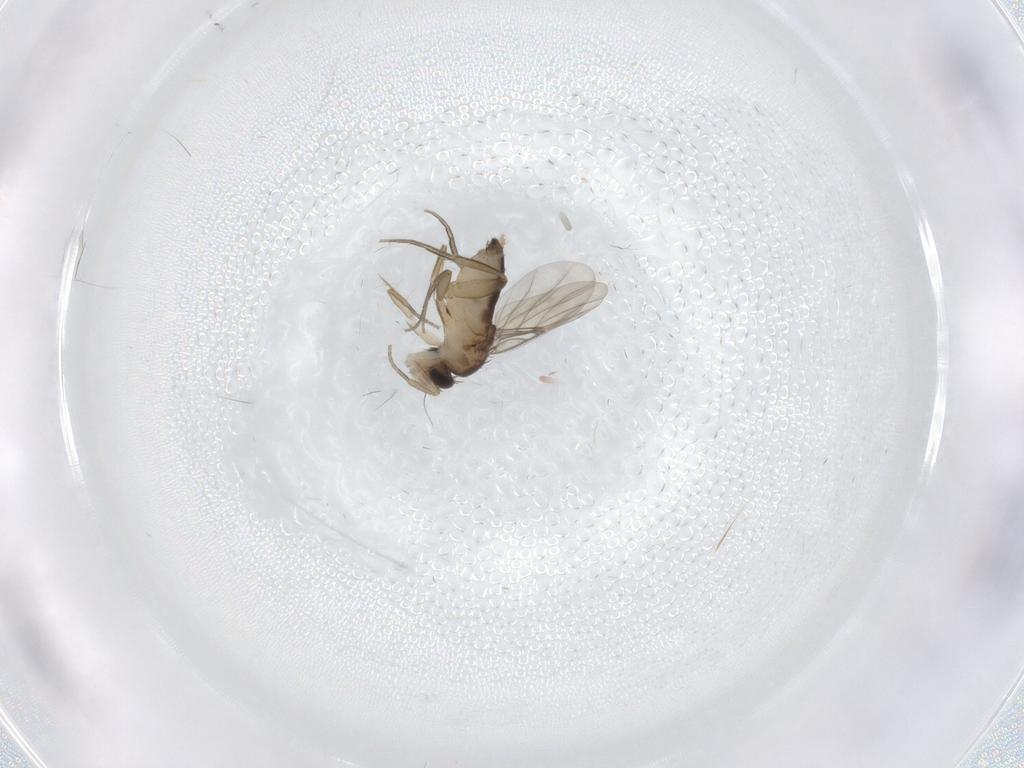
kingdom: Animalia
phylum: Arthropoda
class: Insecta
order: Diptera
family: Phoridae
